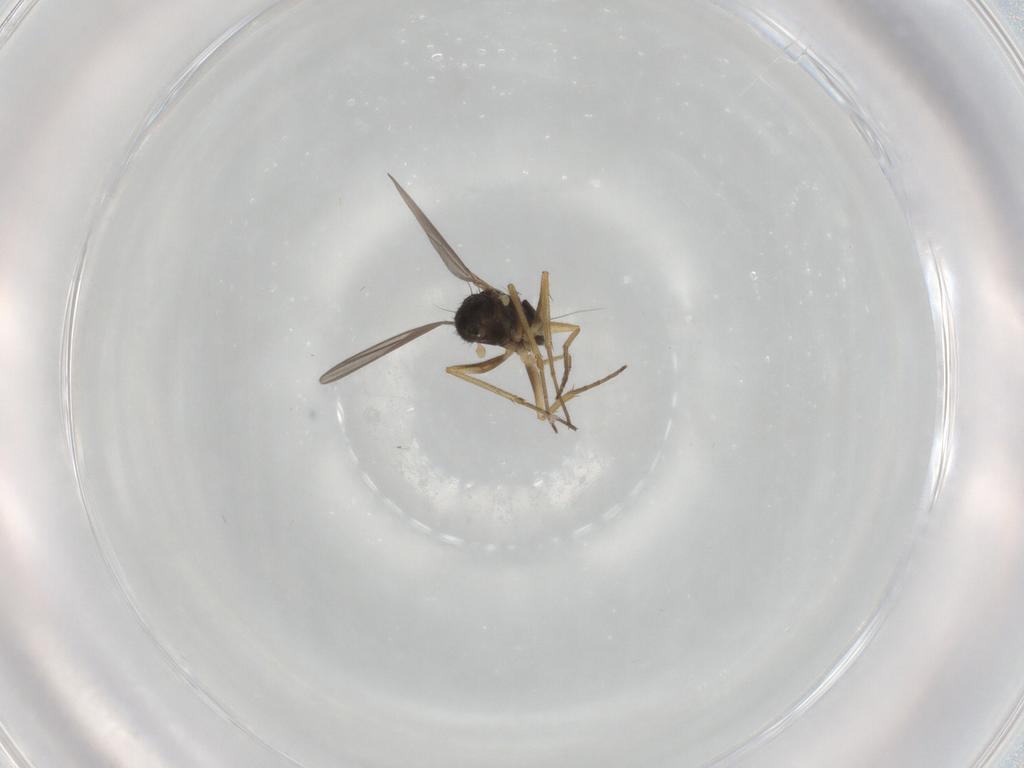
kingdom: Animalia
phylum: Arthropoda
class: Insecta
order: Diptera
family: Dolichopodidae
